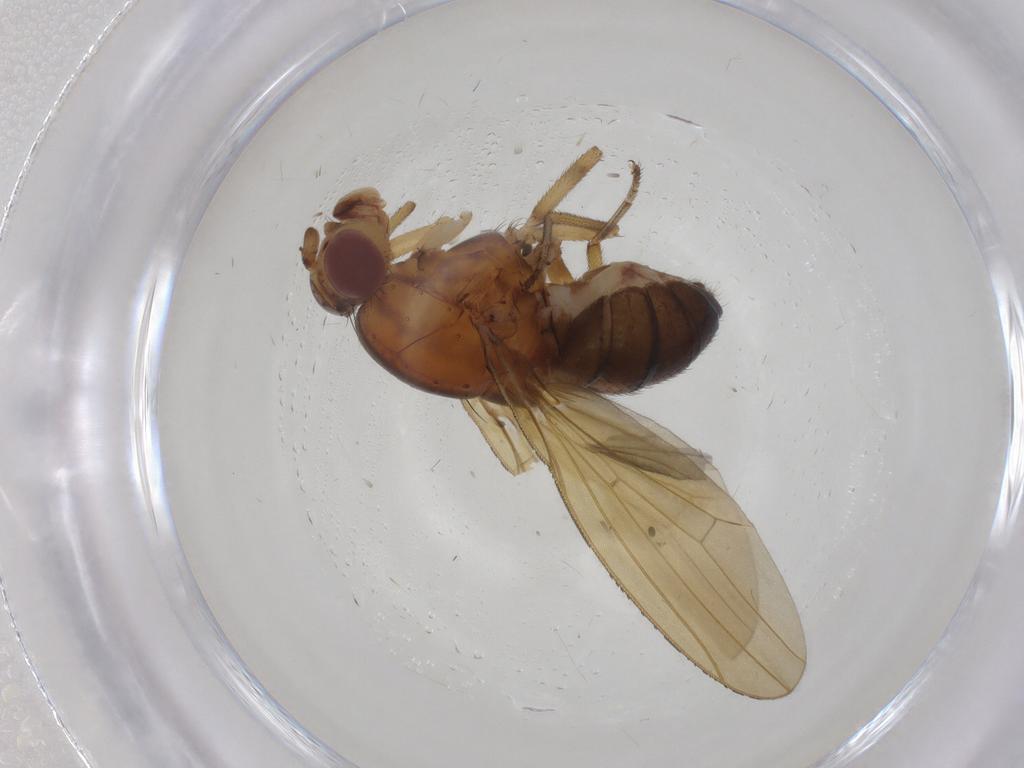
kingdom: Animalia
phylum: Arthropoda
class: Insecta
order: Diptera
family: Lauxaniidae
